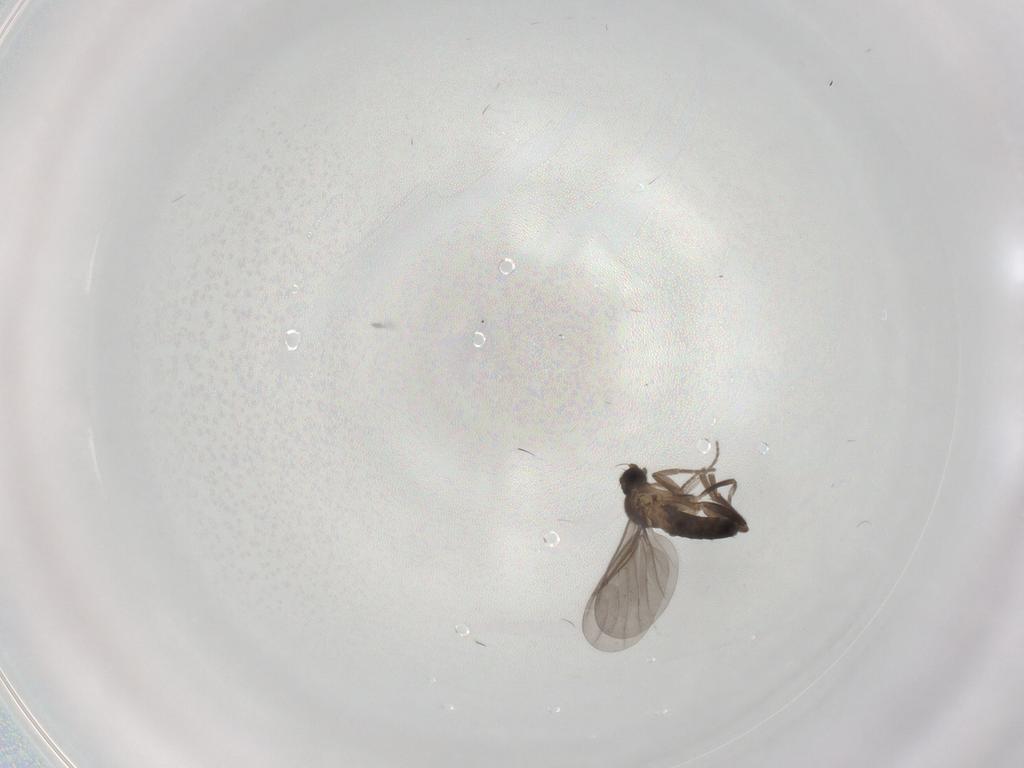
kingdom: Animalia
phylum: Arthropoda
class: Insecta
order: Diptera
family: Phoridae
